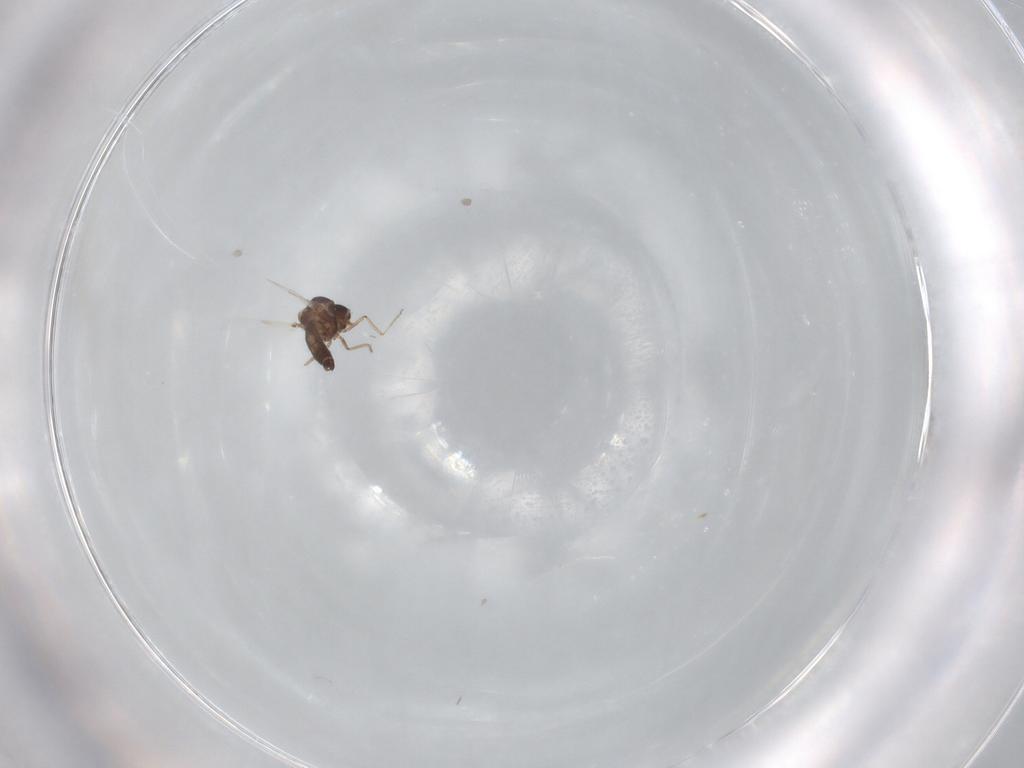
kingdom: Animalia
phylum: Arthropoda
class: Insecta
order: Diptera
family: Ceratopogonidae
